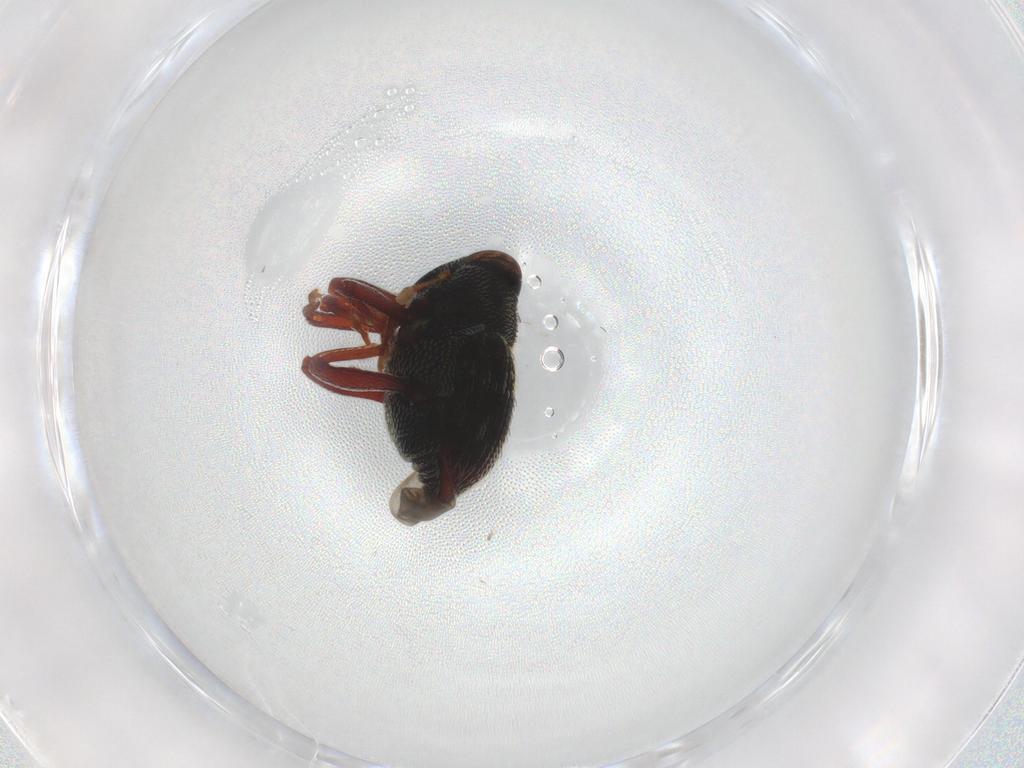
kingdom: Animalia
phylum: Arthropoda
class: Insecta
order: Coleoptera
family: Curculionidae
